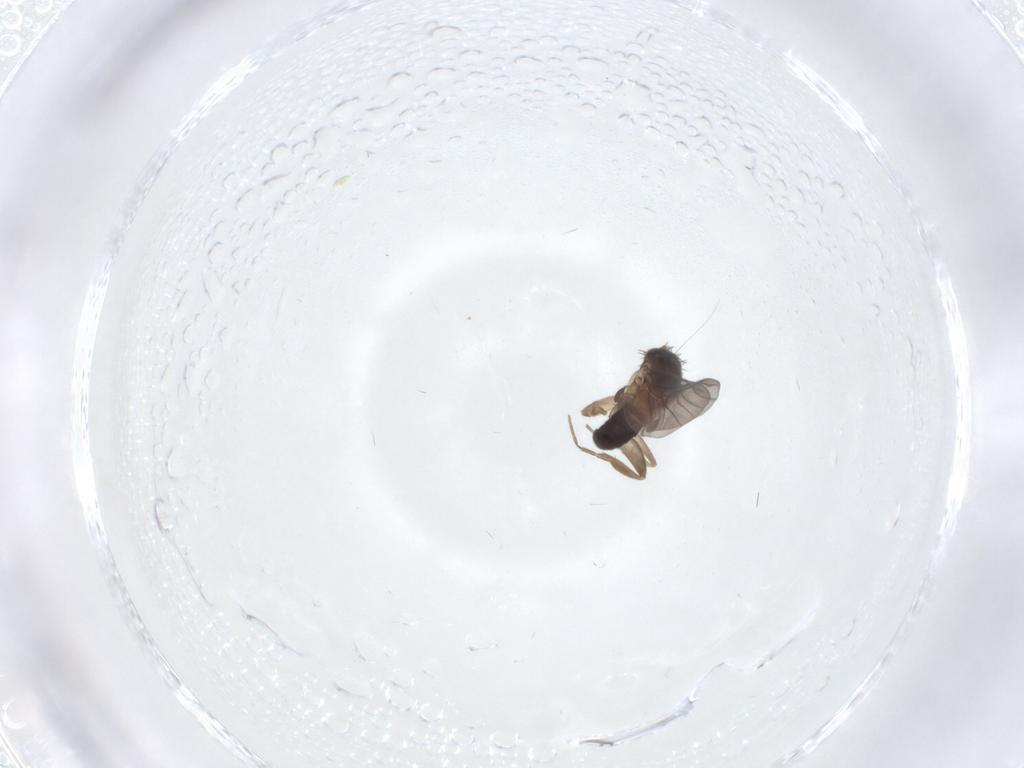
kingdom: Animalia
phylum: Arthropoda
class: Insecta
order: Diptera
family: Phoridae
